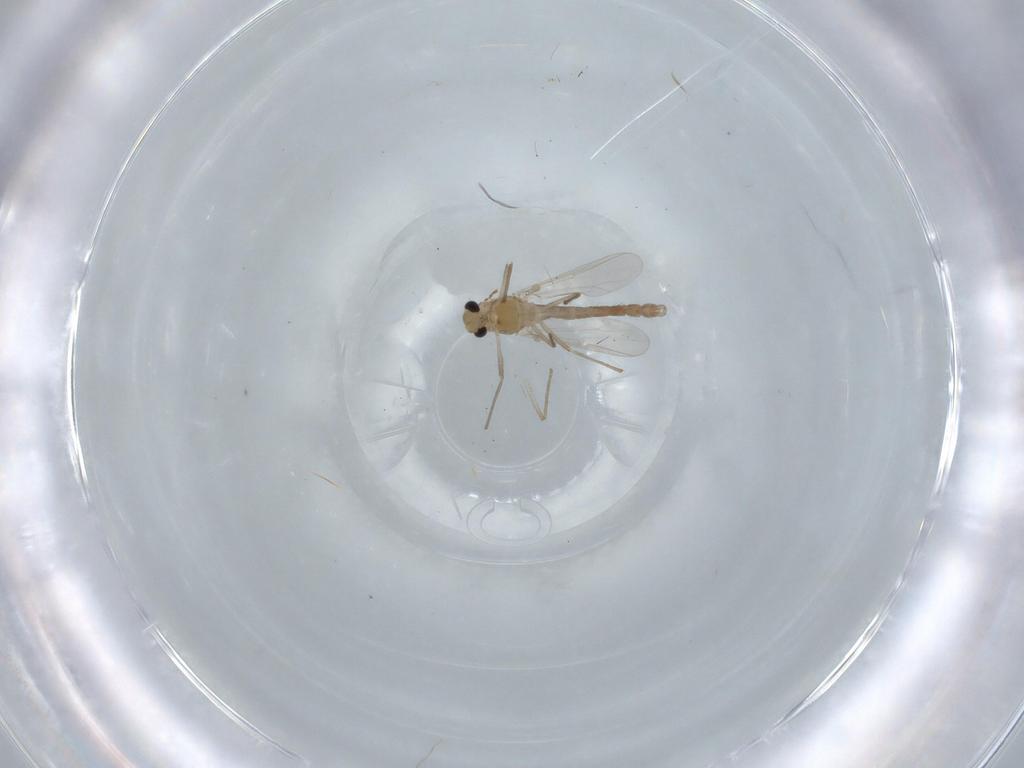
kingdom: Animalia
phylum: Arthropoda
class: Insecta
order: Diptera
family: Chironomidae
